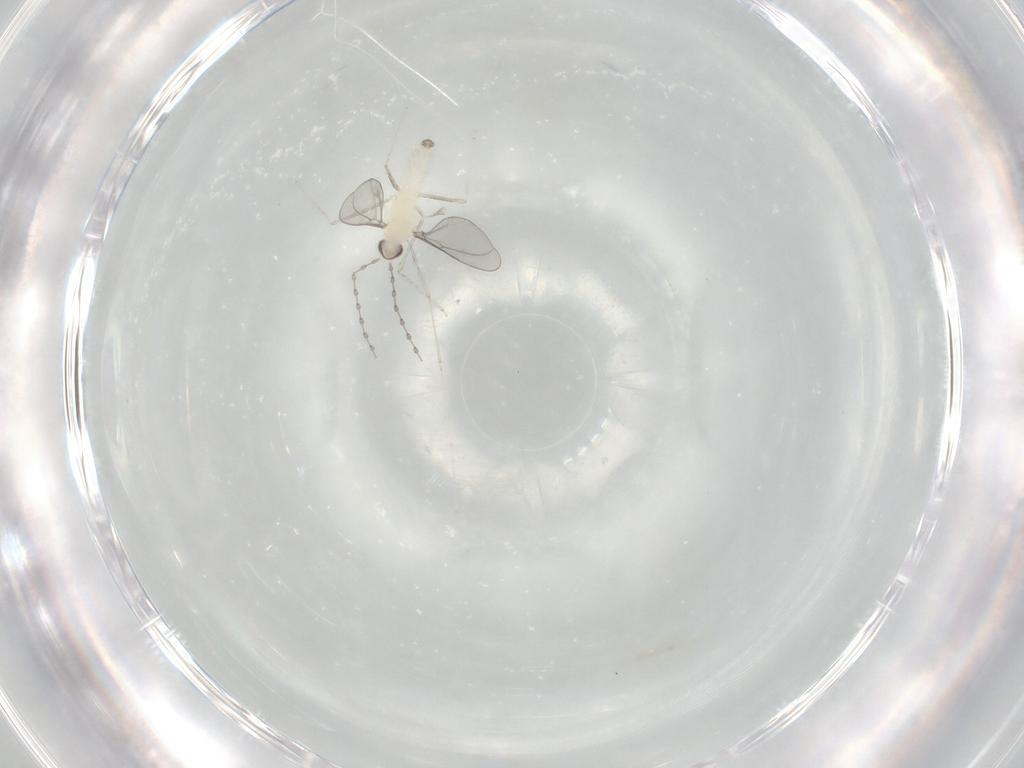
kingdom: Animalia
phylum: Arthropoda
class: Insecta
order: Diptera
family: Cecidomyiidae
